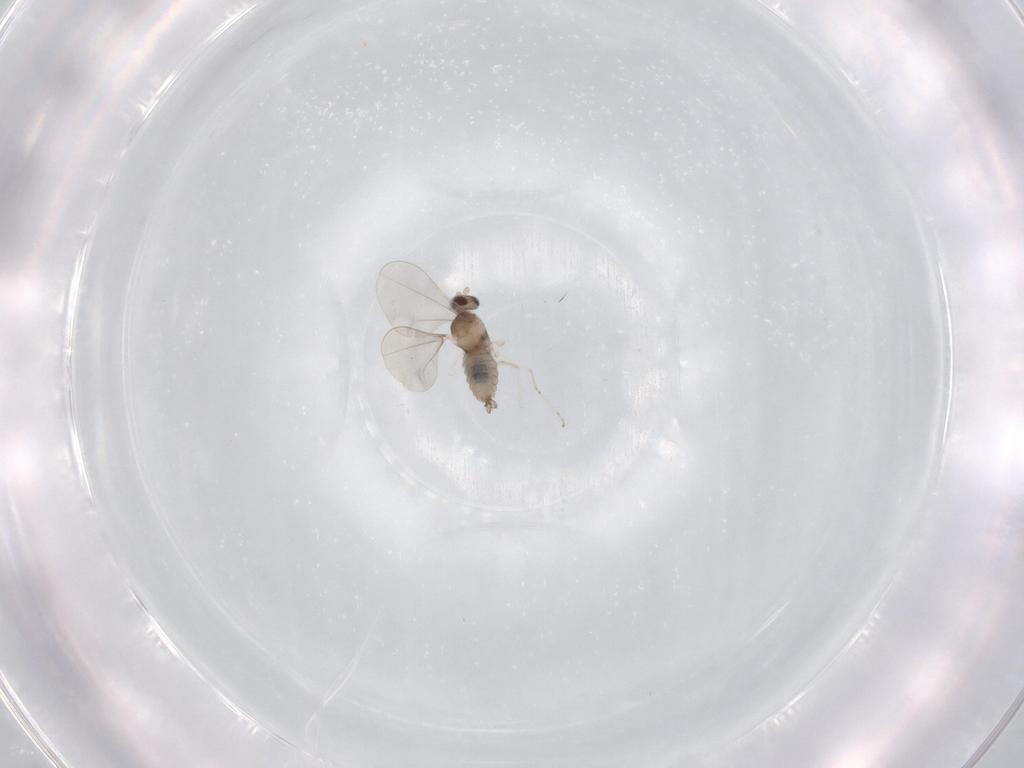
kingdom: Animalia
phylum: Arthropoda
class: Insecta
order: Diptera
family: Cecidomyiidae
